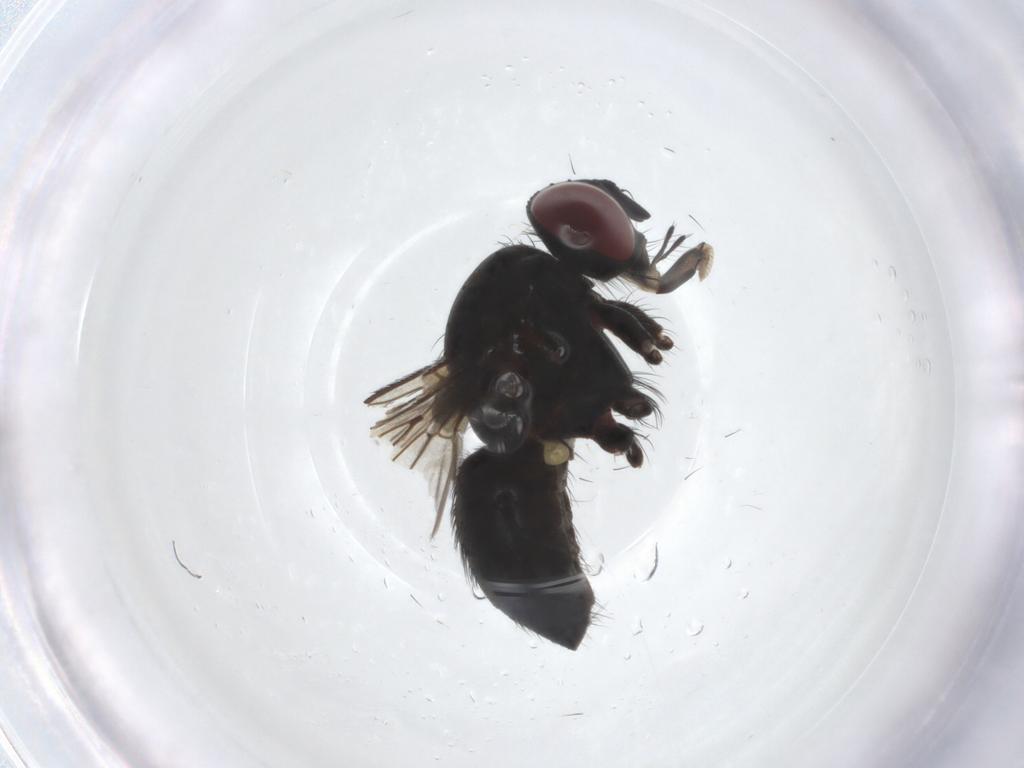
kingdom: Animalia
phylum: Arthropoda
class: Insecta
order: Diptera
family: Muscidae
